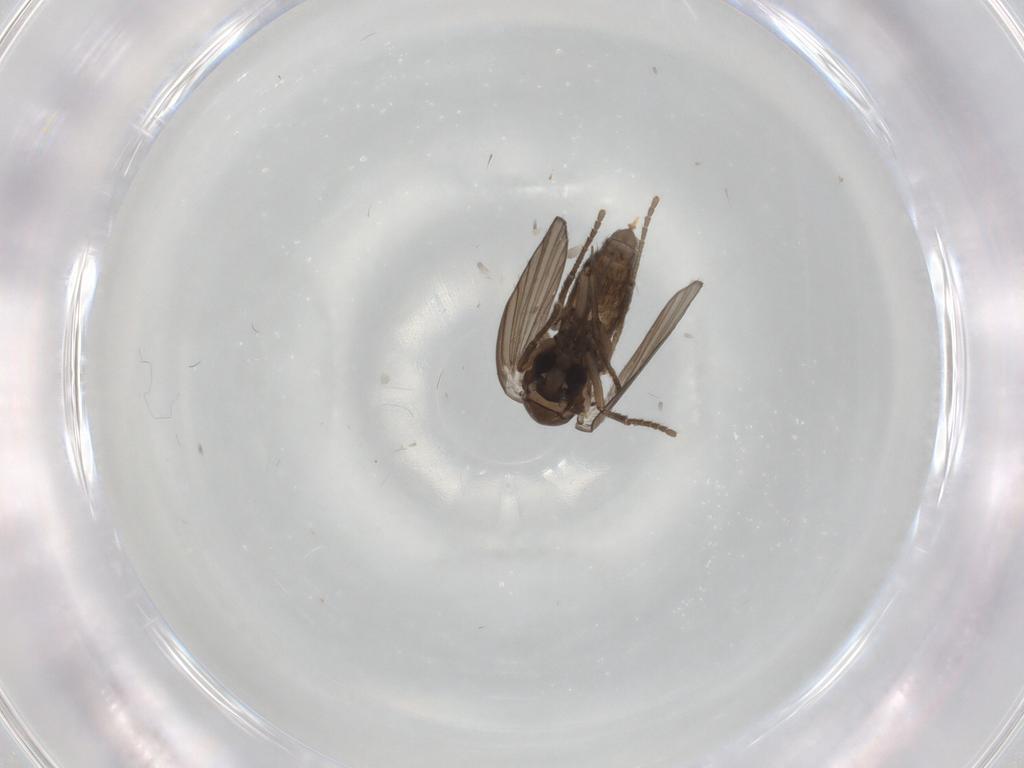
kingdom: Animalia
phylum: Arthropoda
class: Insecta
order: Diptera
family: Psychodidae
